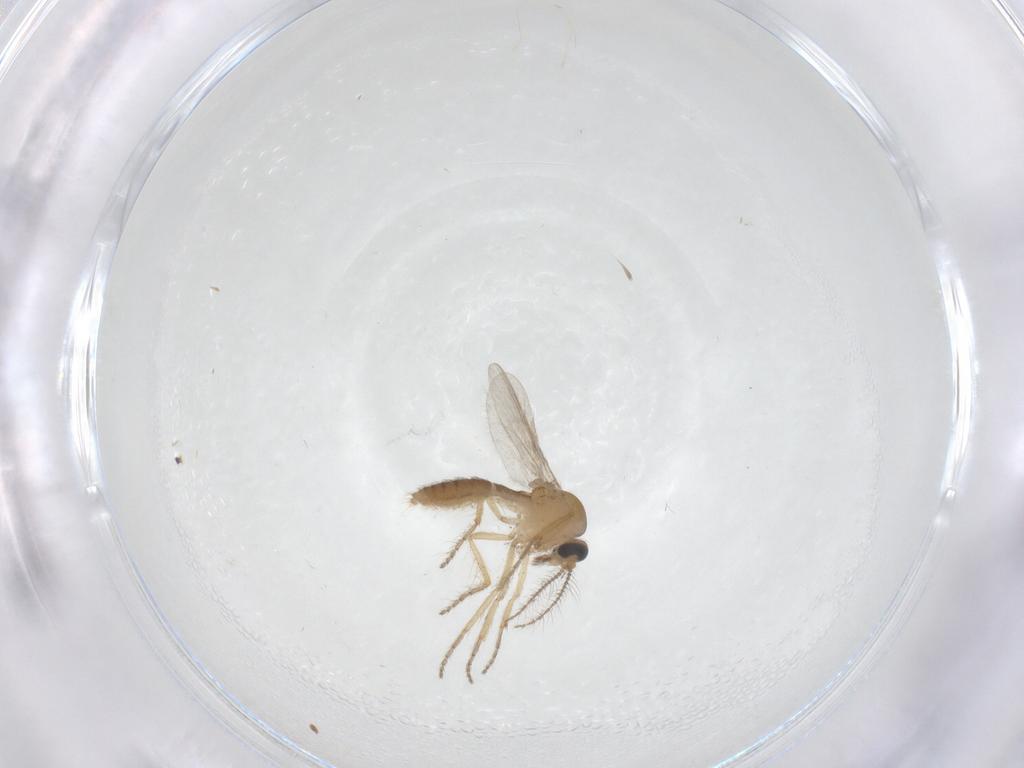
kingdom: Animalia
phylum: Arthropoda
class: Insecta
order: Diptera
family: Ceratopogonidae
